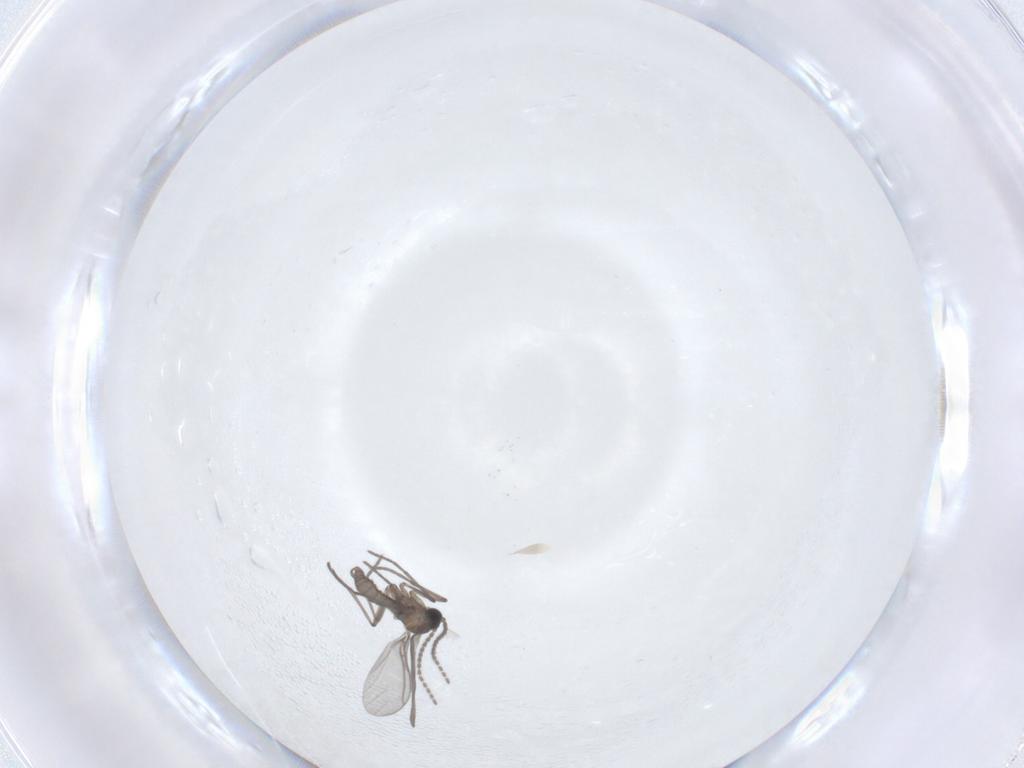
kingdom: Animalia
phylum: Arthropoda
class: Insecta
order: Diptera
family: Sciaridae
